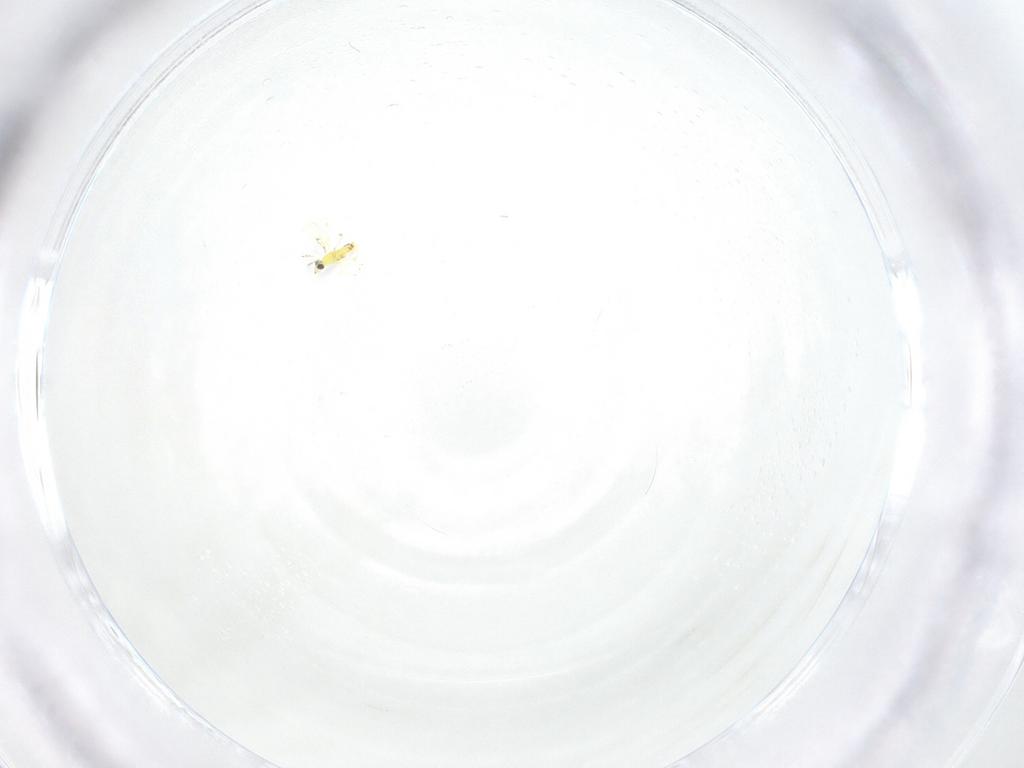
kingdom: Animalia
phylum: Arthropoda
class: Insecta
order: Hymenoptera
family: Trichogrammatidae
